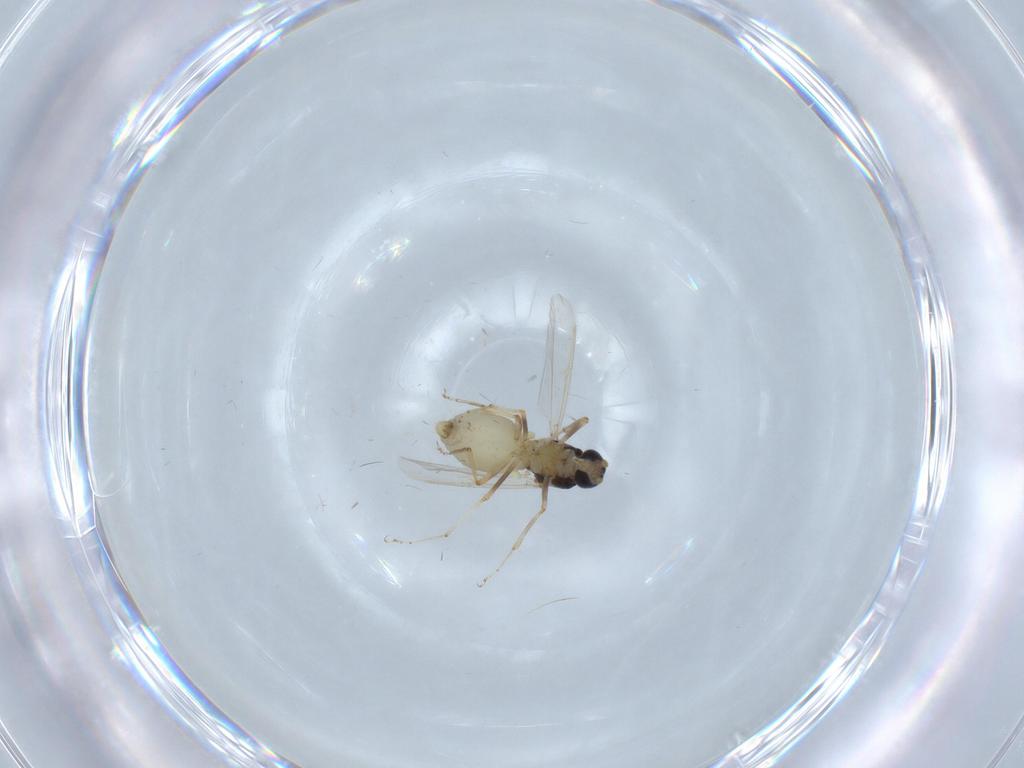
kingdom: Animalia
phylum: Arthropoda
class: Insecta
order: Diptera
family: Ceratopogonidae
